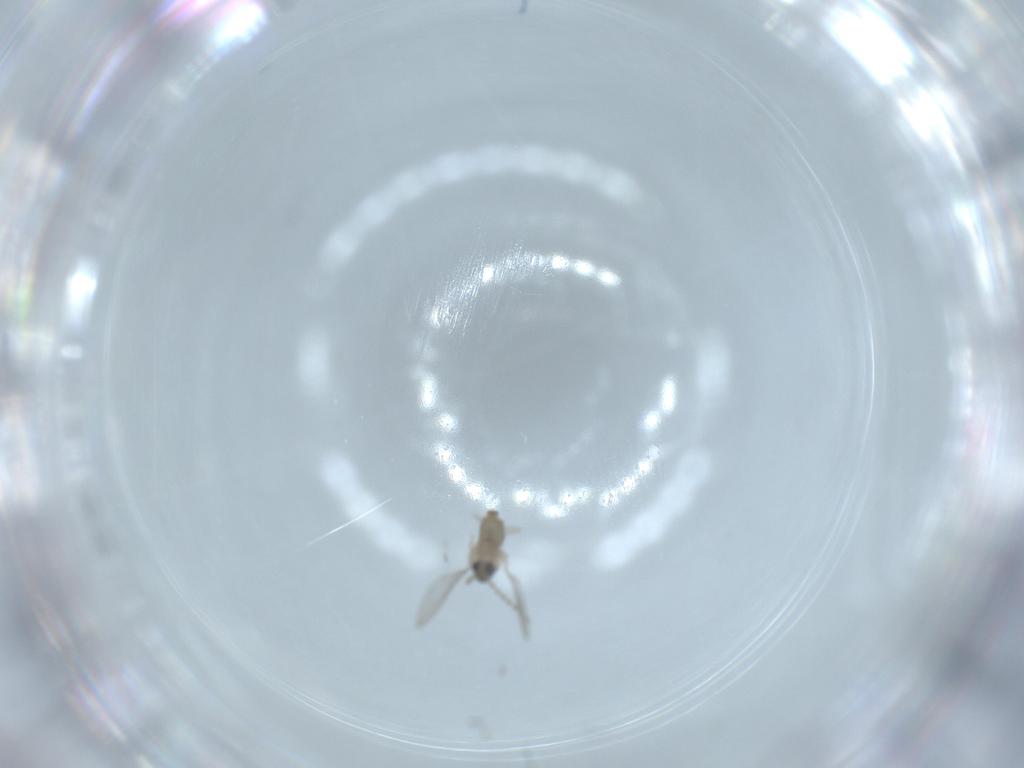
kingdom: Animalia
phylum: Arthropoda
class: Insecta
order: Diptera
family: Cecidomyiidae
